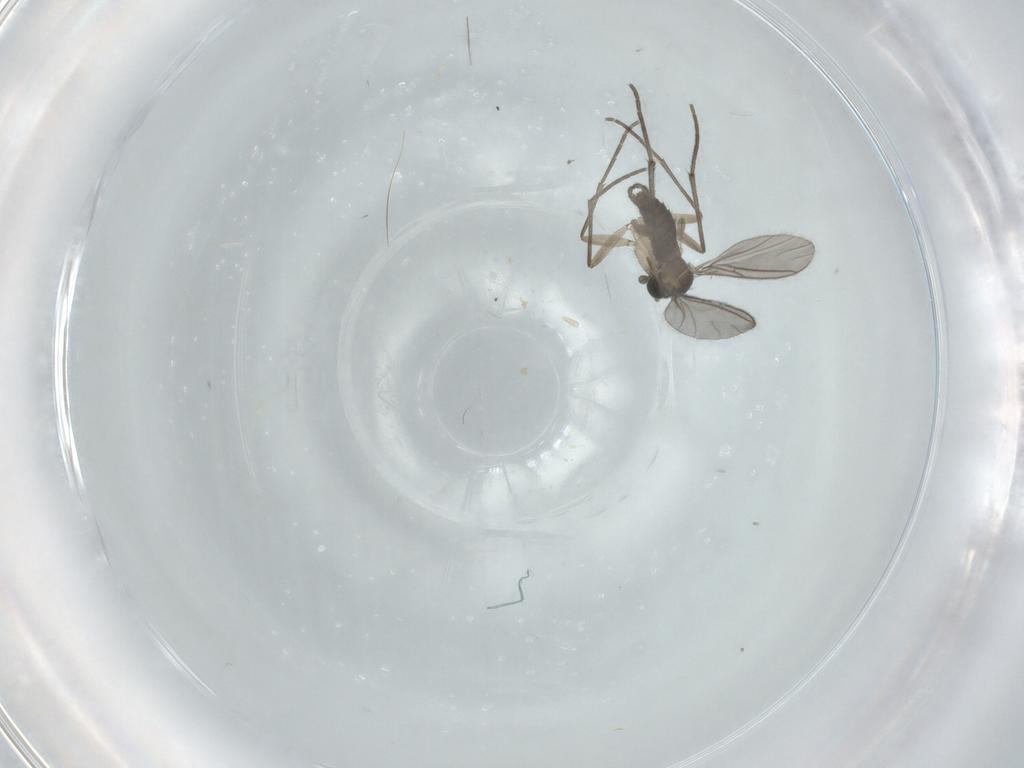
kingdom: Animalia
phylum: Arthropoda
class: Insecta
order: Diptera
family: Sciaridae
